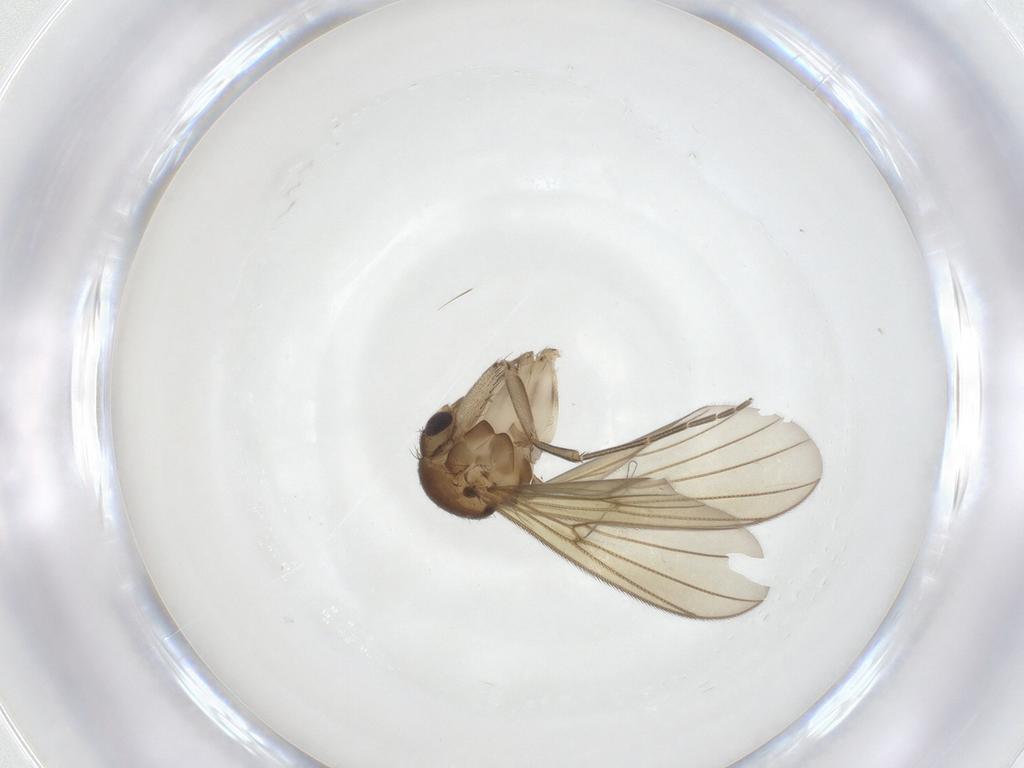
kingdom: Animalia
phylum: Arthropoda
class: Insecta
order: Diptera
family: Mycetophilidae
